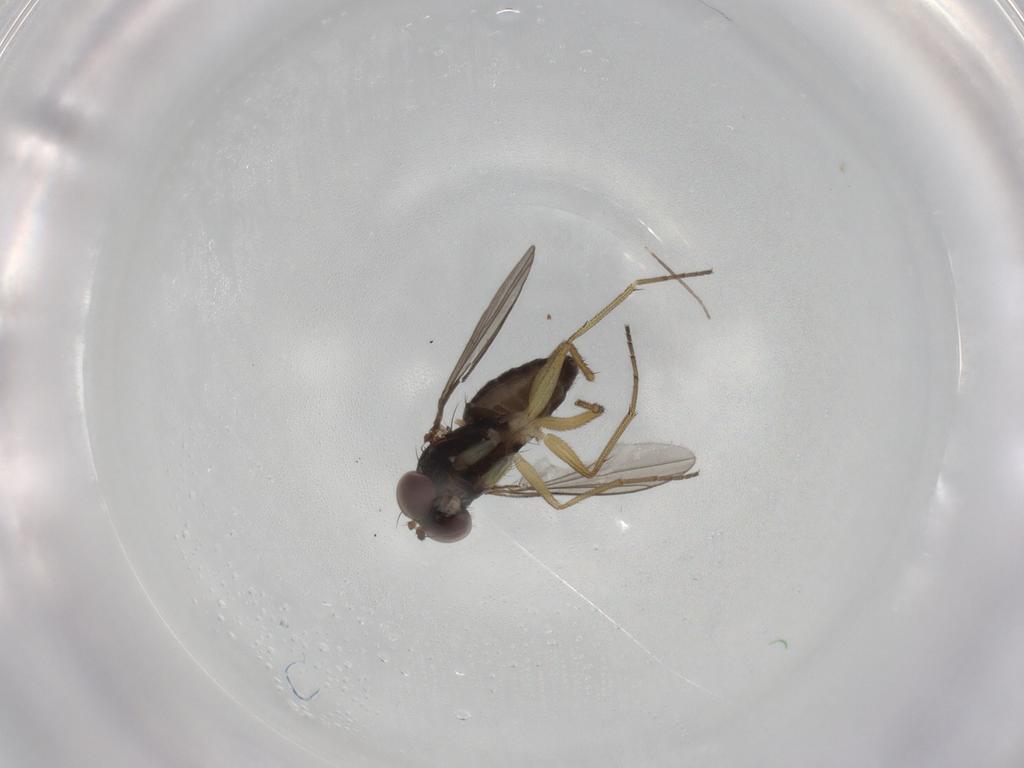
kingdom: Animalia
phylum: Arthropoda
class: Insecta
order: Diptera
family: Dolichopodidae
